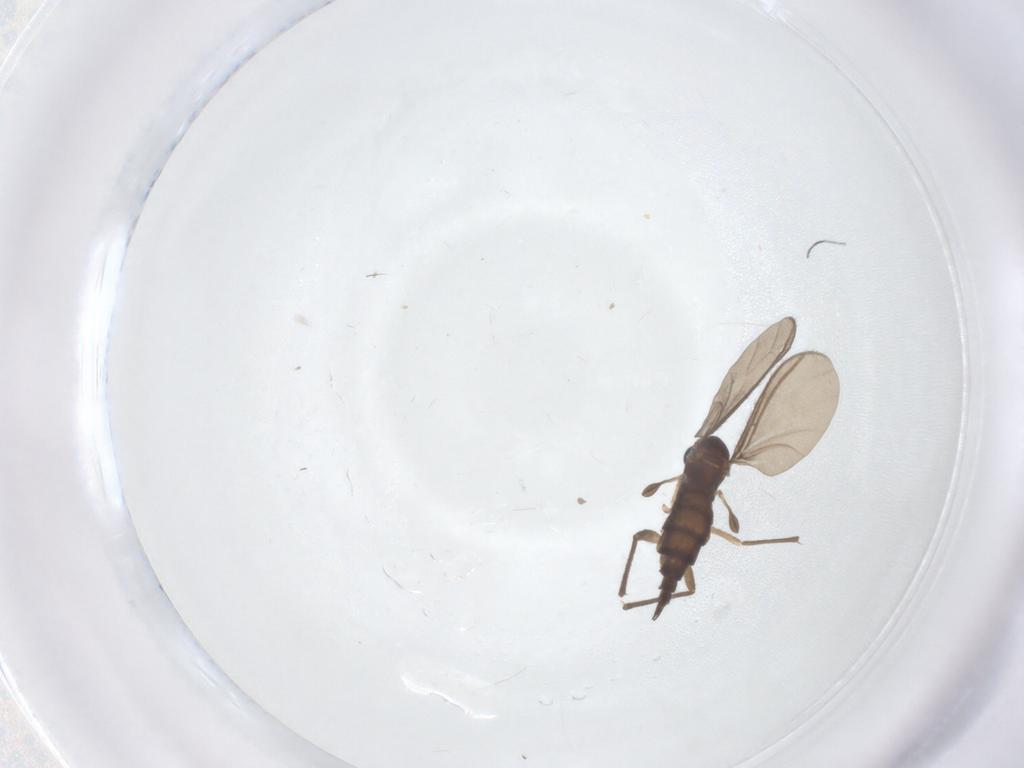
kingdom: Animalia
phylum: Arthropoda
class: Insecta
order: Diptera
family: Sciaridae
